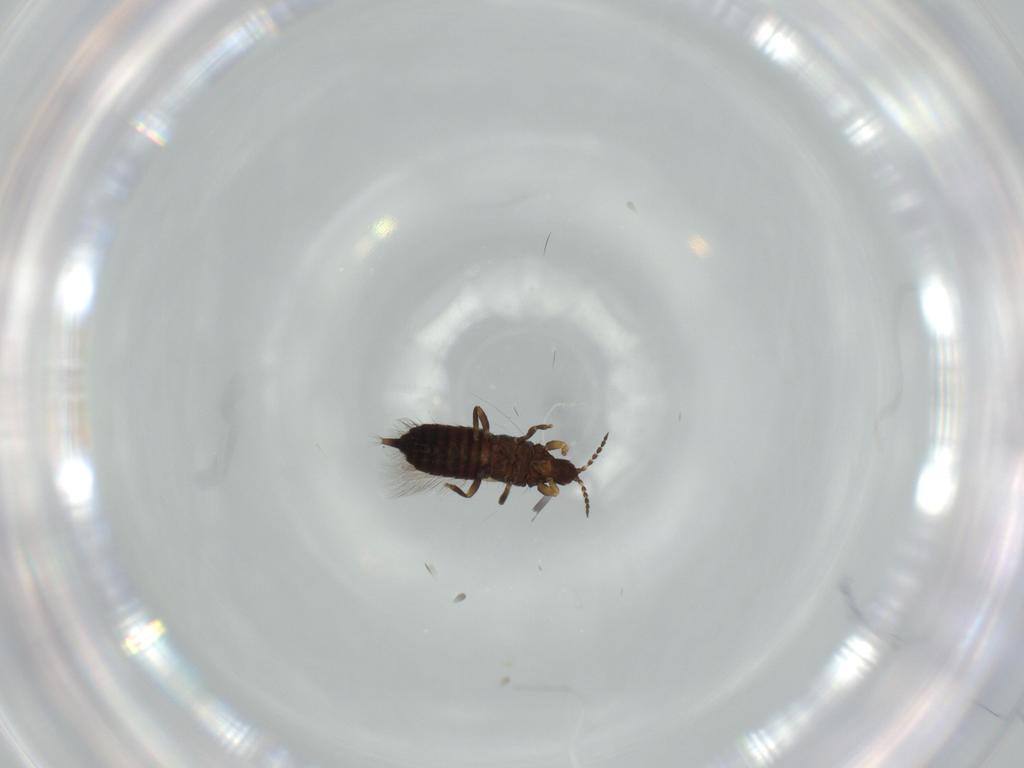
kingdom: Animalia
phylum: Arthropoda
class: Insecta
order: Thysanoptera
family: Phlaeothripidae
